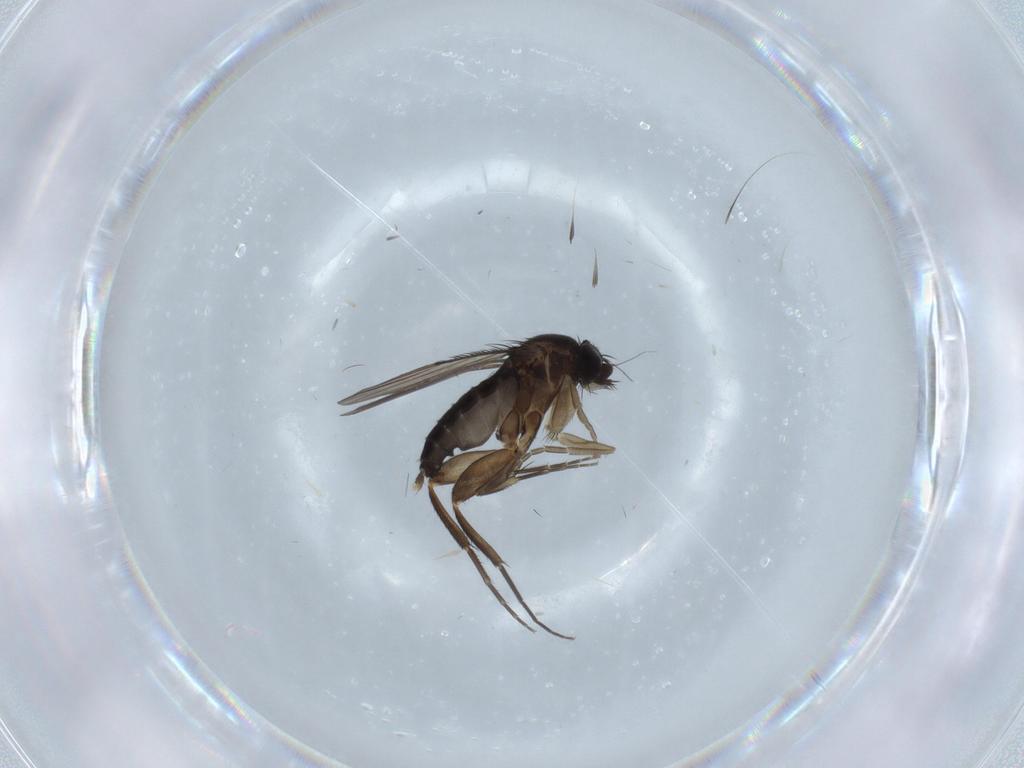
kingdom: Animalia
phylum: Arthropoda
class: Insecta
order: Diptera
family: Phoridae
